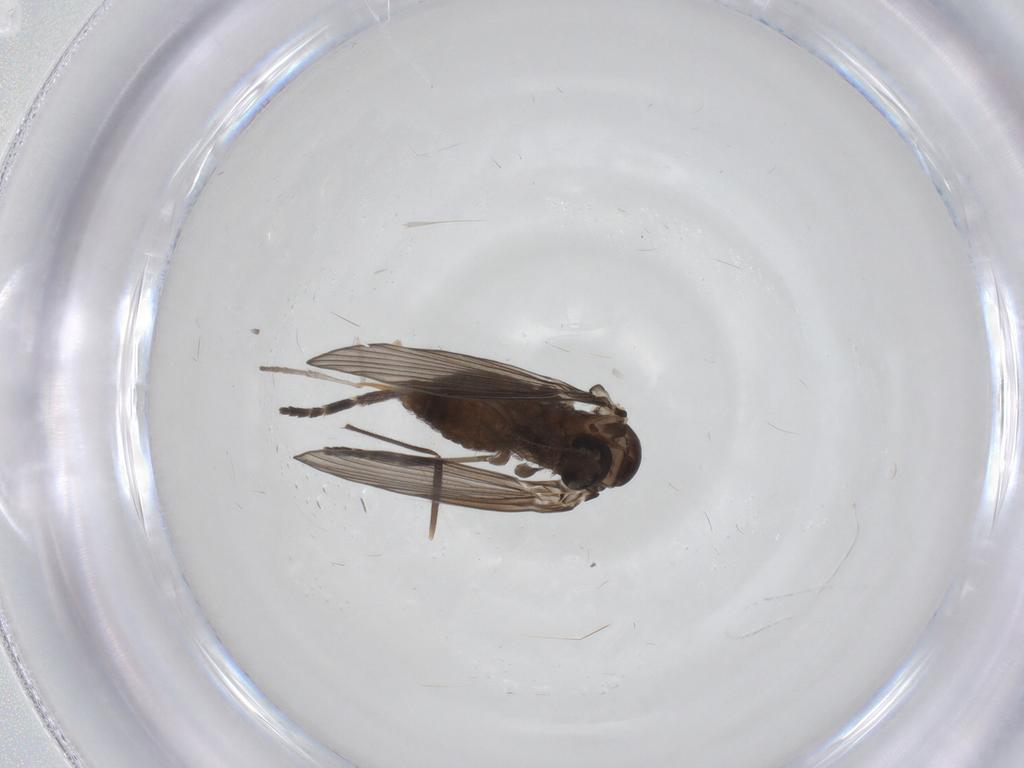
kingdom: Animalia
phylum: Arthropoda
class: Insecta
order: Diptera
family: Psychodidae
